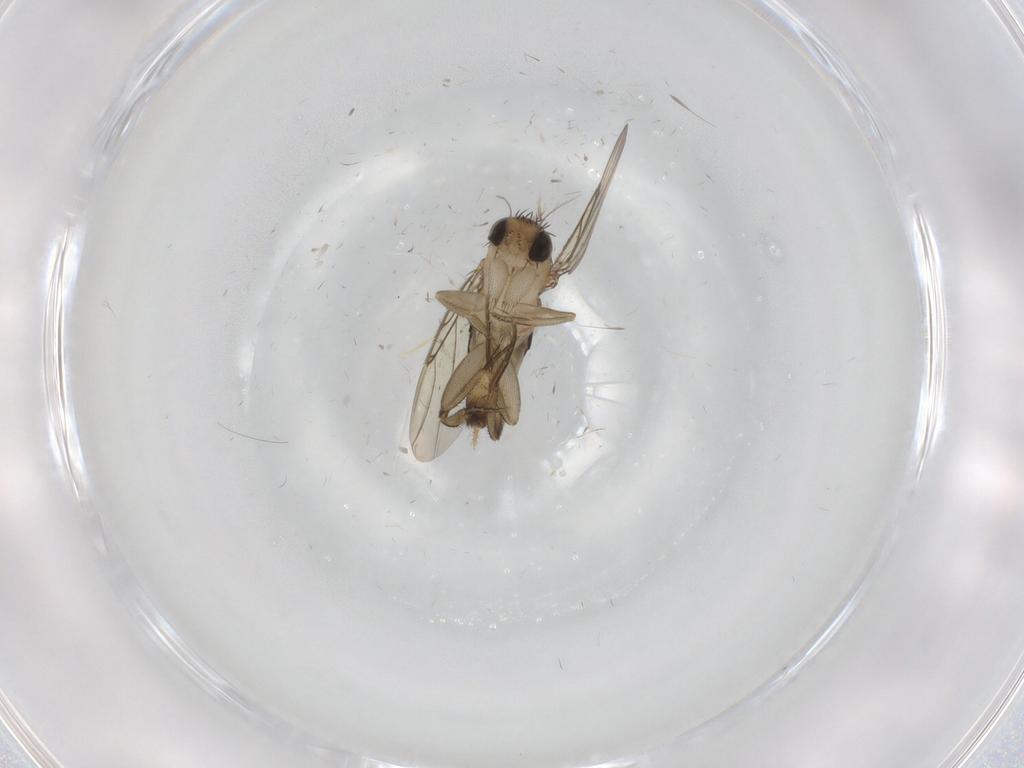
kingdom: Animalia
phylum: Arthropoda
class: Insecta
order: Diptera
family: Phoridae
